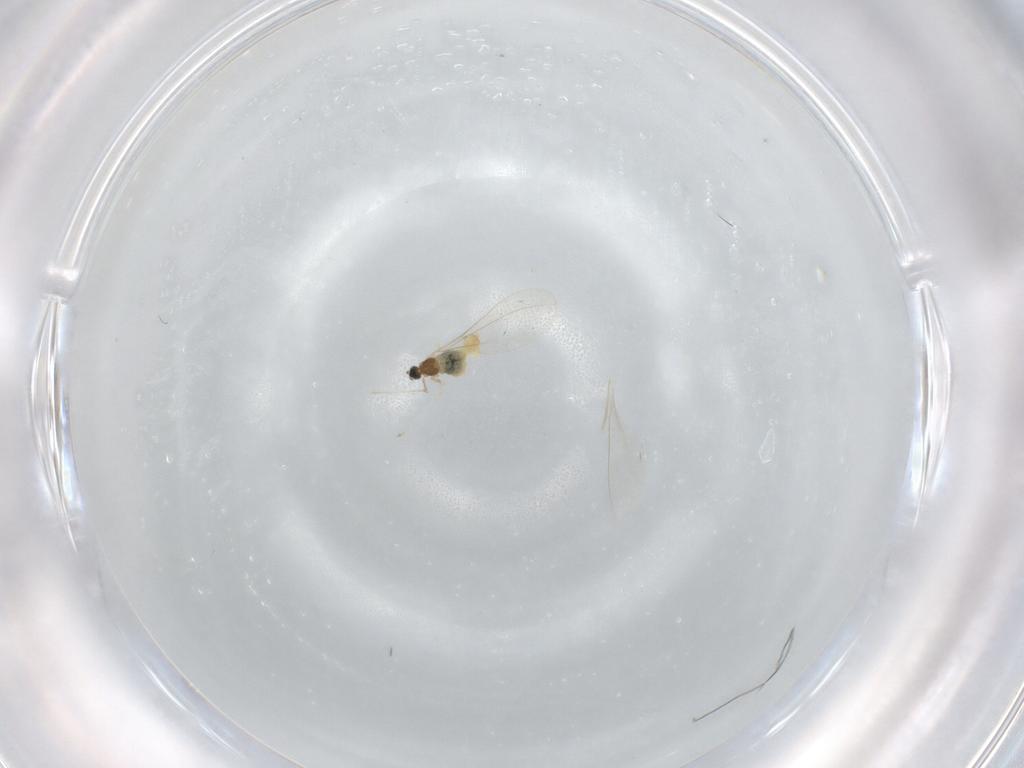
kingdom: Animalia
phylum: Arthropoda
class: Insecta
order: Diptera
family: Cecidomyiidae
